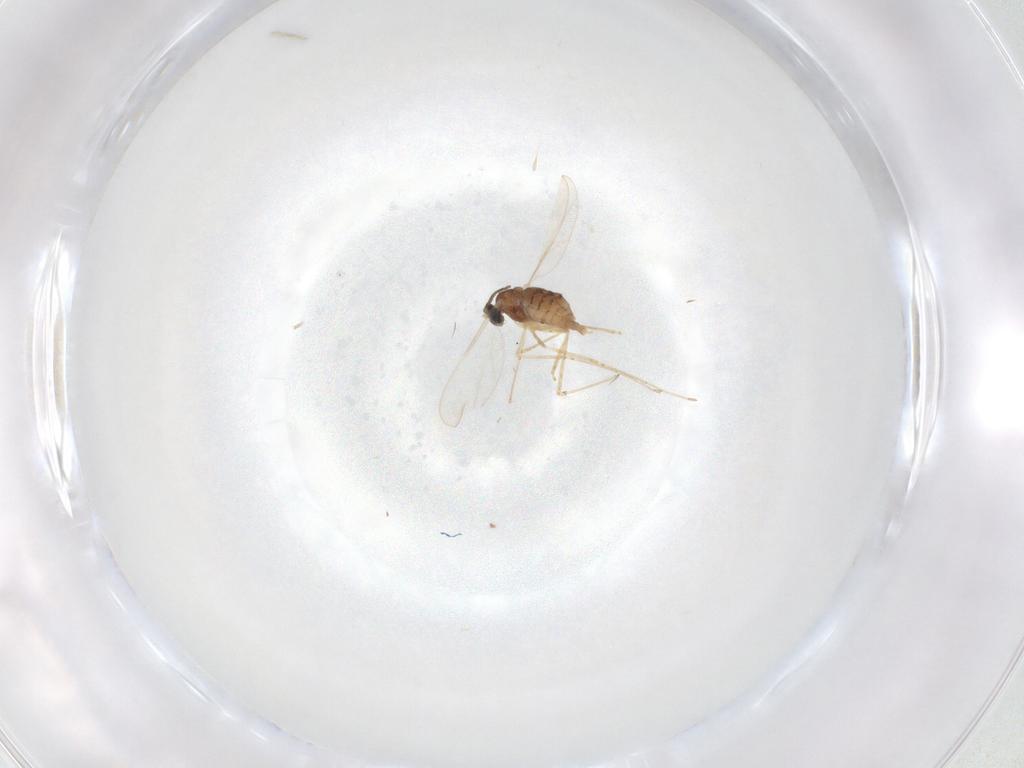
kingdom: Animalia
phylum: Arthropoda
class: Insecta
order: Diptera
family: Cecidomyiidae
